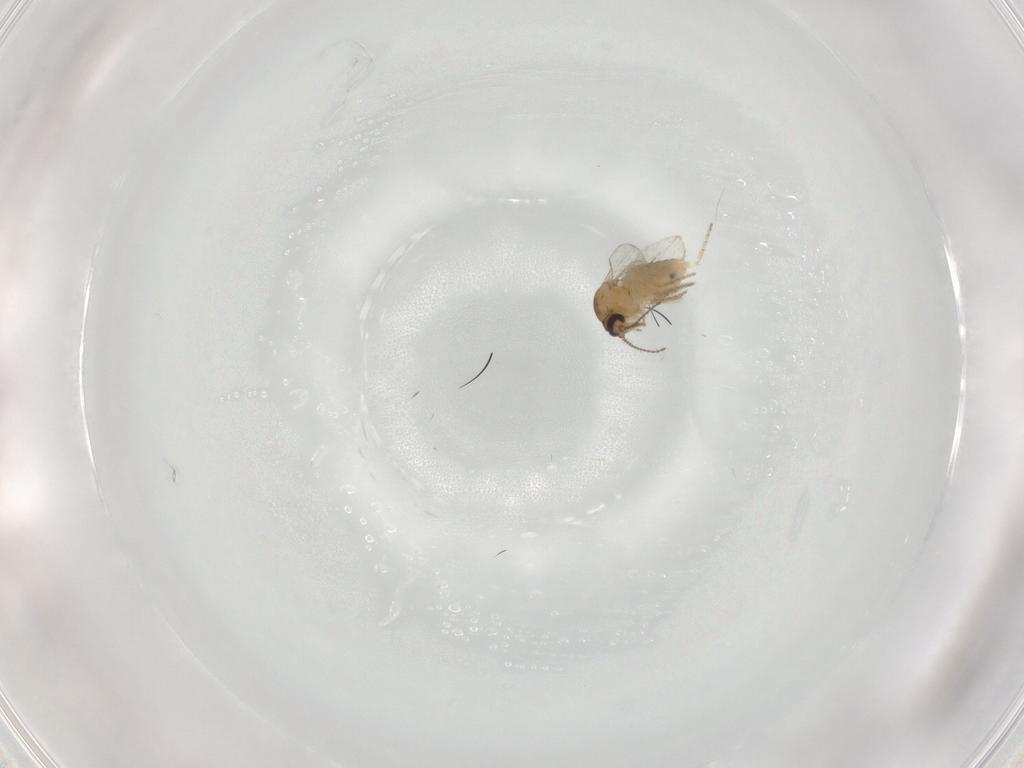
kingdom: Animalia
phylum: Arthropoda
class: Insecta
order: Diptera
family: Ceratopogonidae
